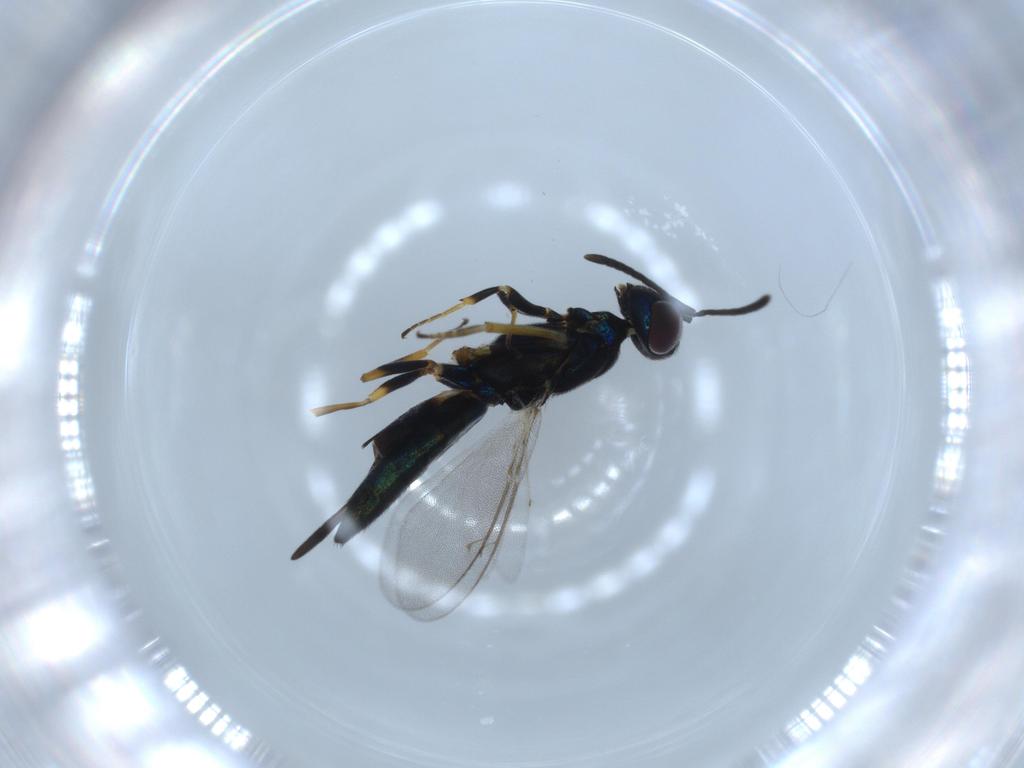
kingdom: Animalia
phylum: Arthropoda
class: Insecta
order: Hymenoptera
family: Eupelmidae
